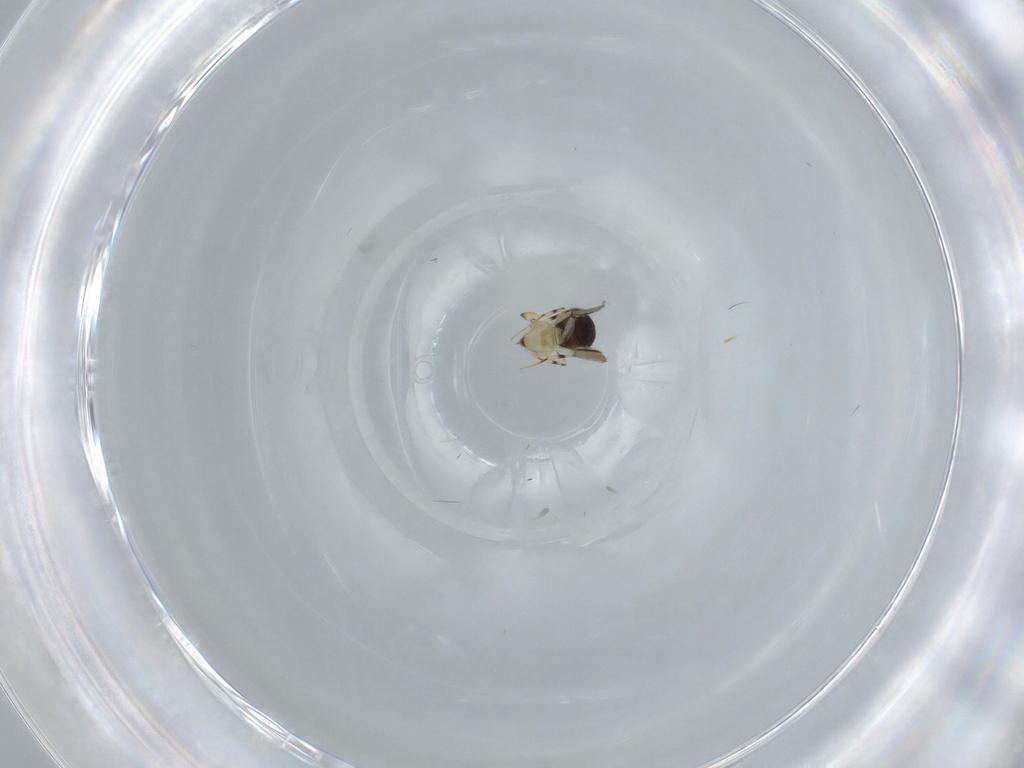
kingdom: Animalia
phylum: Arthropoda
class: Insecta
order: Hymenoptera
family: Scelionidae
